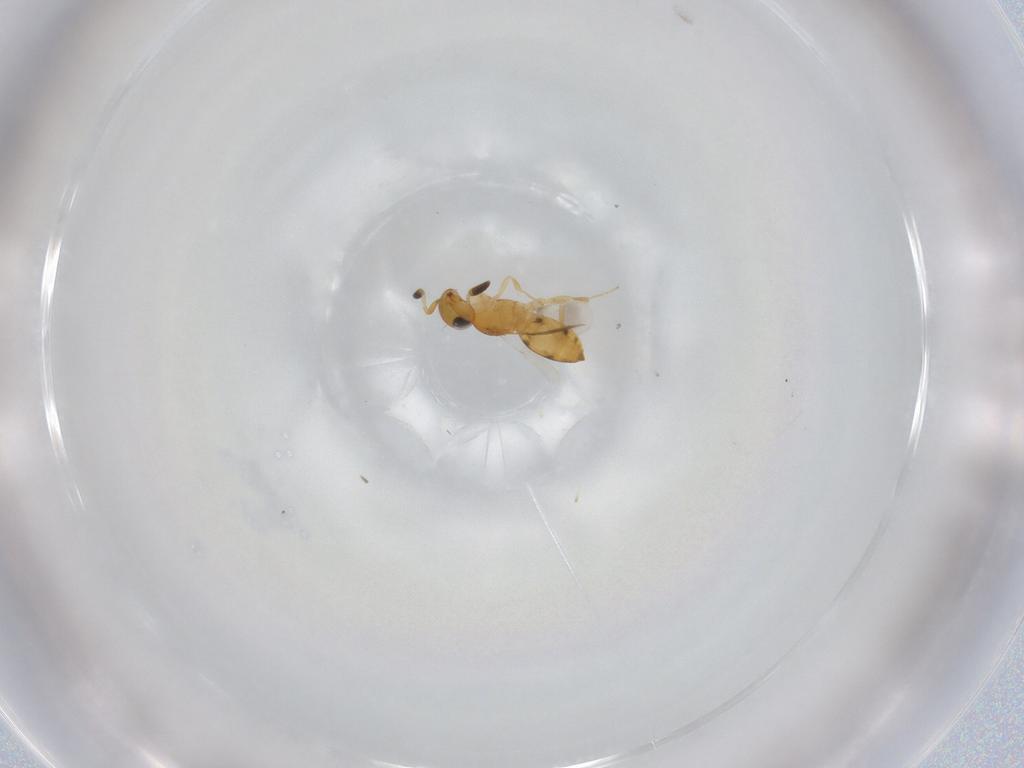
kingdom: Animalia
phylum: Arthropoda
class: Insecta
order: Hymenoptera
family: Scelionidae
